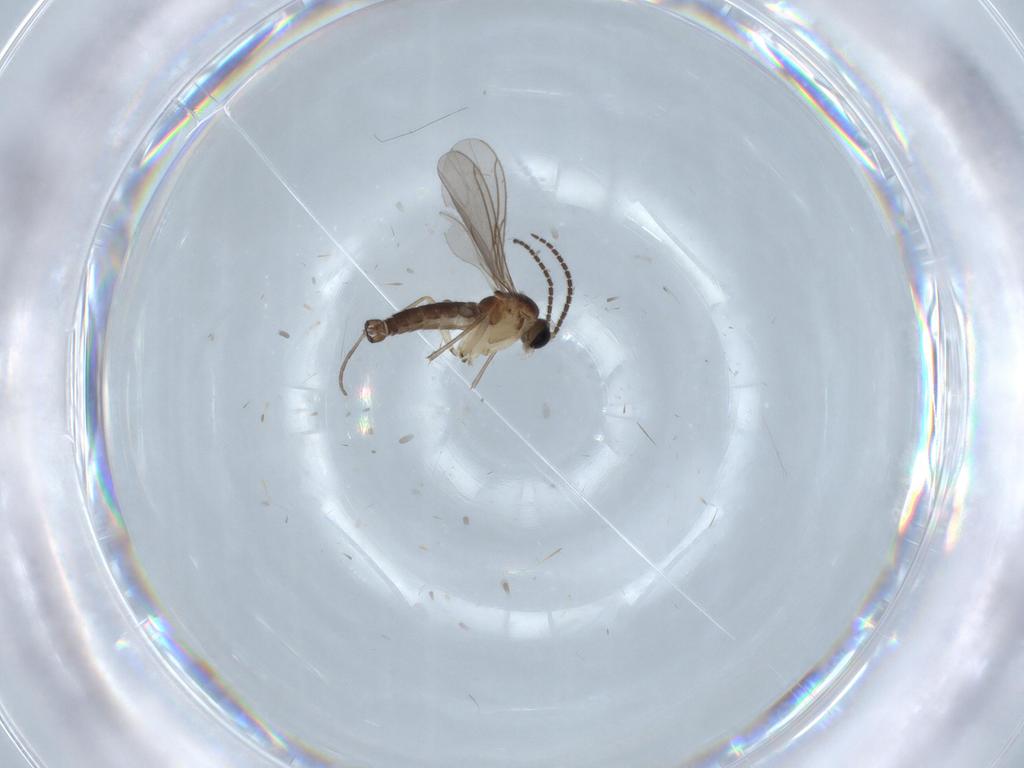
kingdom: Animalia
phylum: Arthropoda
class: Insecta
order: Diptera
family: Sciaridae
